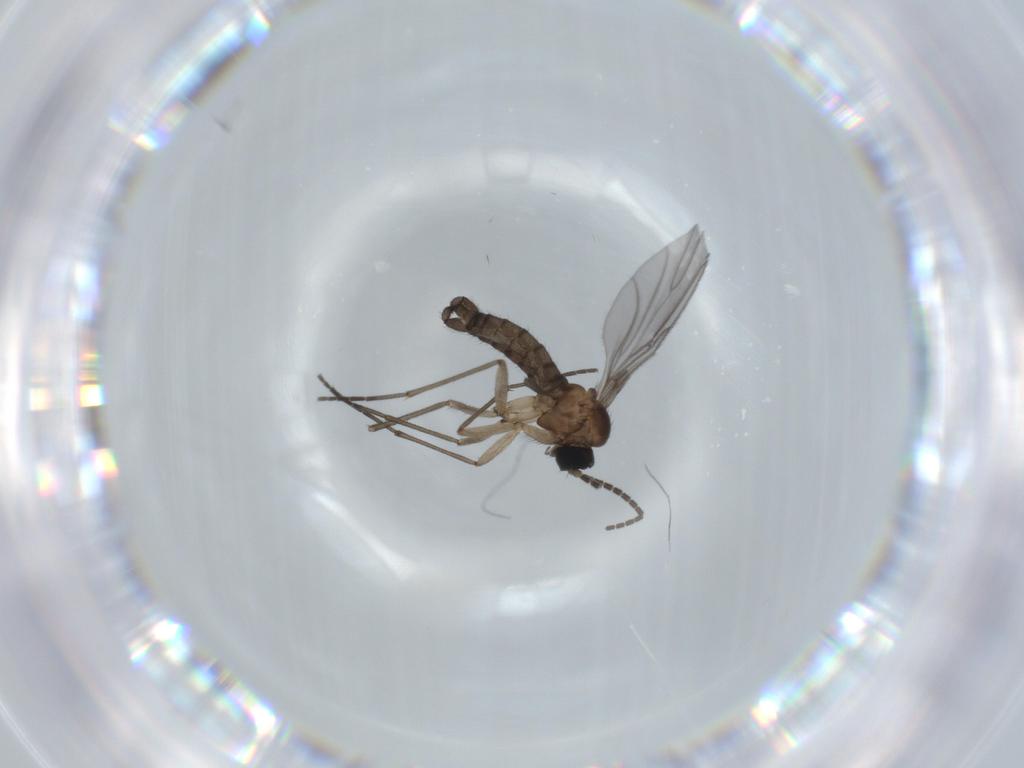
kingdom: Animalia
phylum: Arthropoda
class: Insecta
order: Diptera
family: Sciaridae
